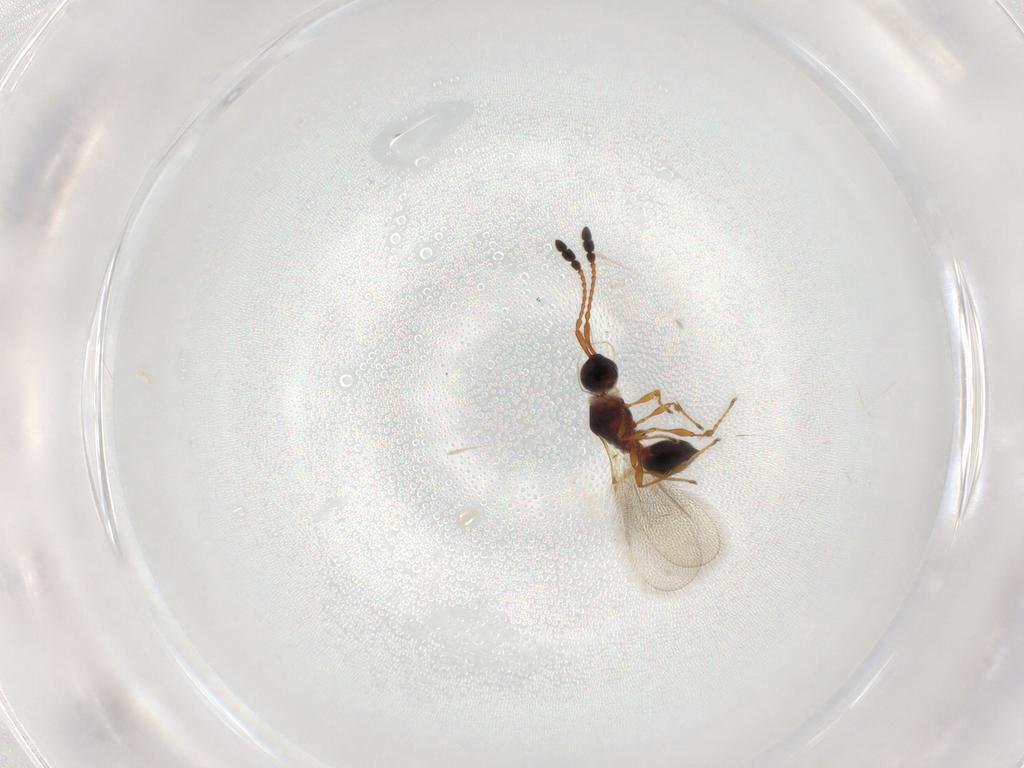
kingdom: Animalia
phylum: Arthropoda
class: Insecta
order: Hymenoptera
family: Diapriidae
